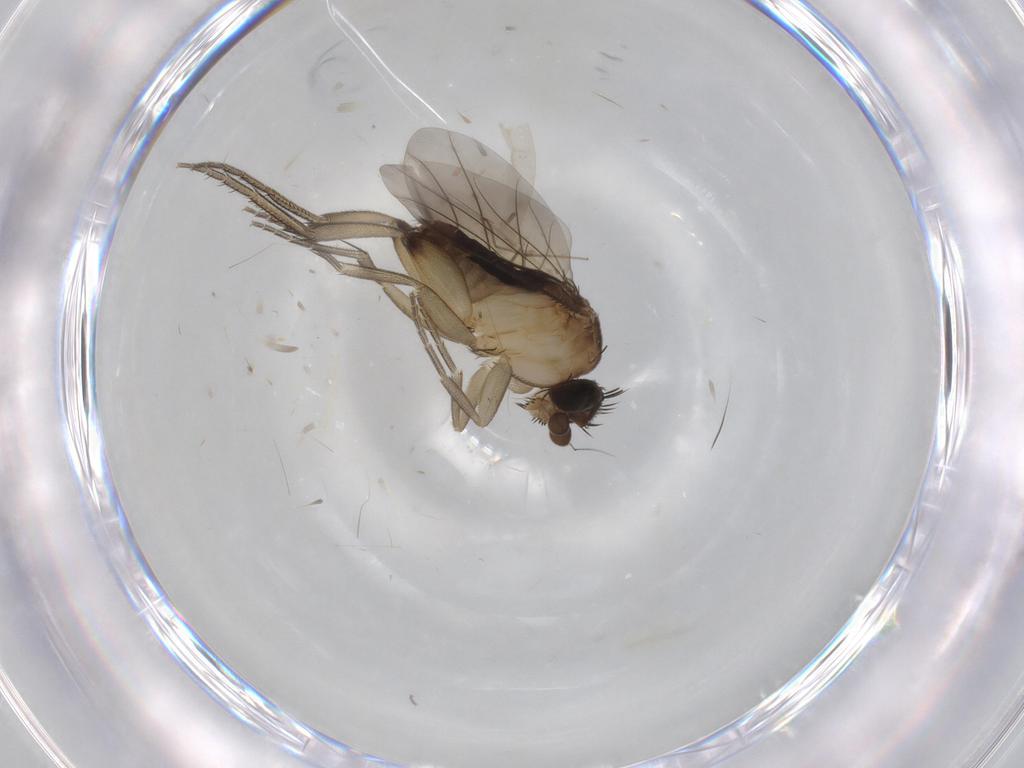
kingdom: Animalia
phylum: Arthropoda
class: Insecta
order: Diptera
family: Chironomidae
